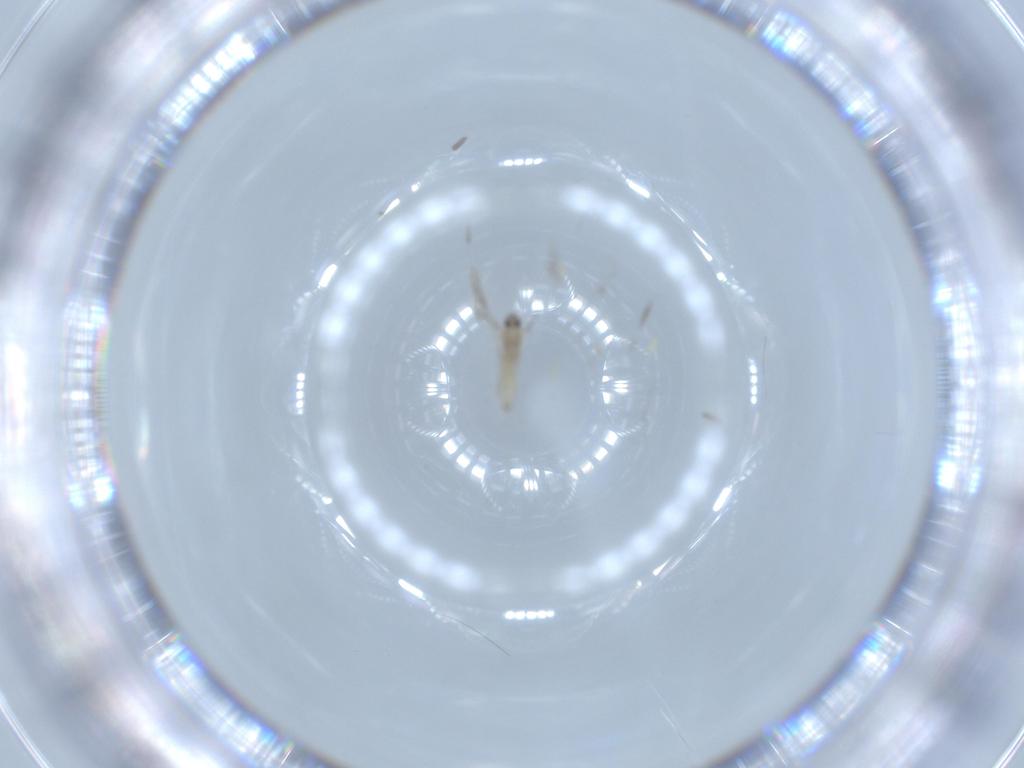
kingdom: Animalia
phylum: Arthropoda
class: Insecta
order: Diptera
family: Cecidomyiidae
